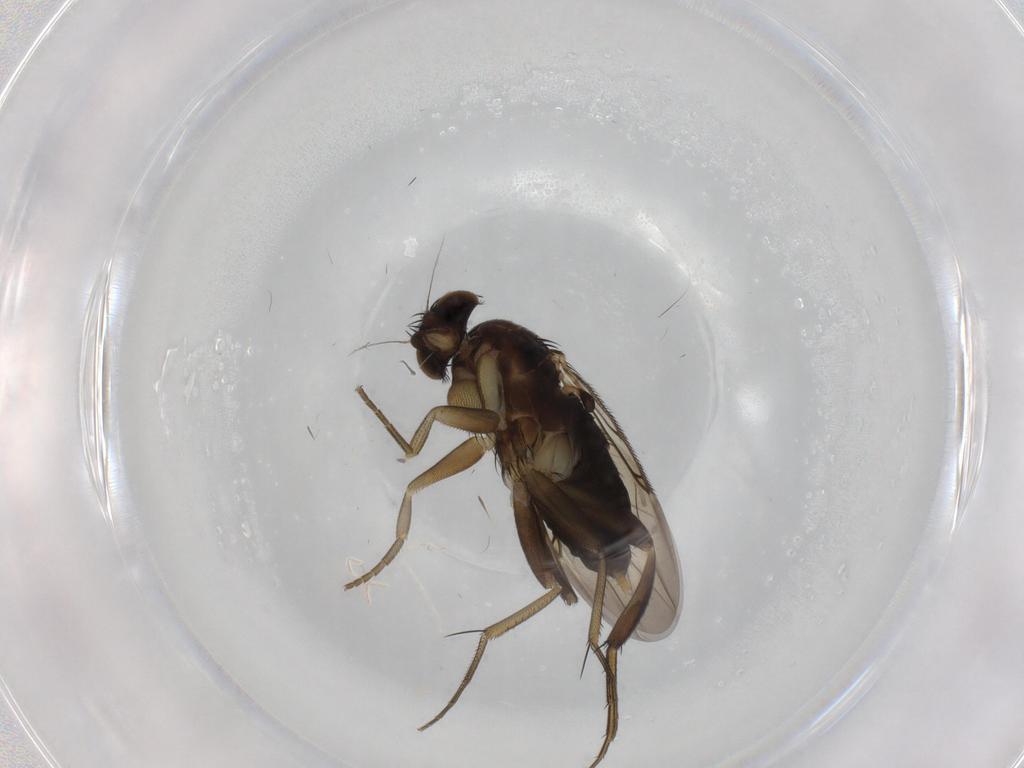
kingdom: Animalia
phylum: Arthropoda
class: Insecta
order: Diptera
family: Phoridae
